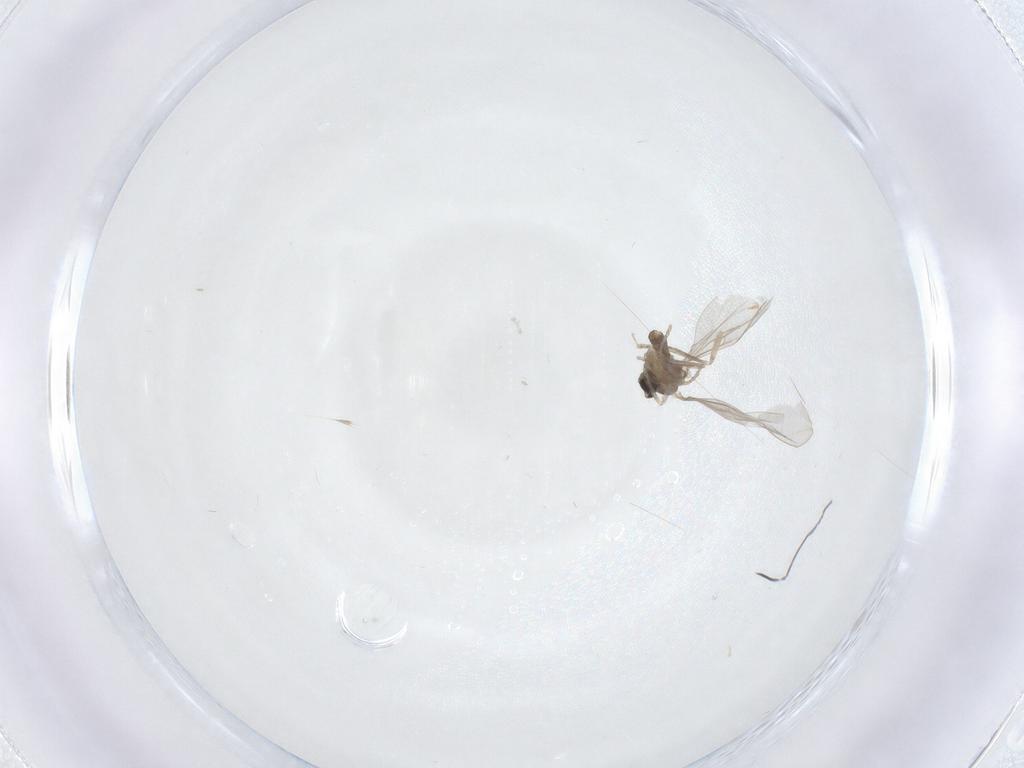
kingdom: Animalia
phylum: Arthropoda
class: Insecta
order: Diptera
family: Cecidomyiidae
